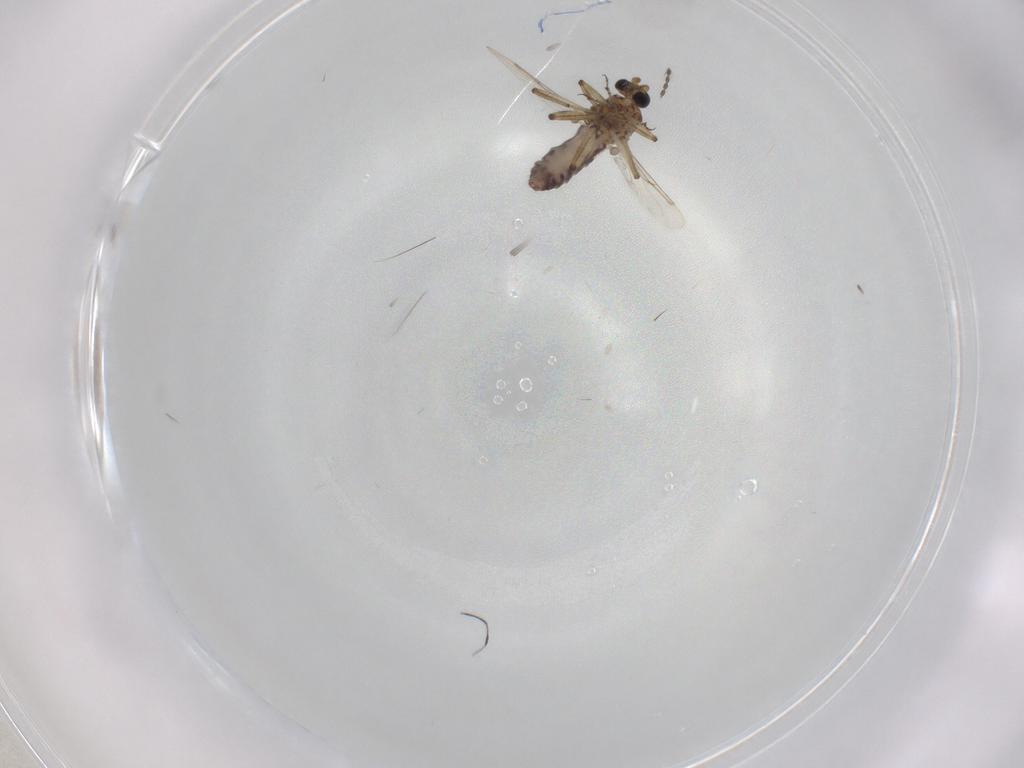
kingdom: Animalia
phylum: Arthropoda
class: Insecta
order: Diptera
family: Ceratopogonidae
